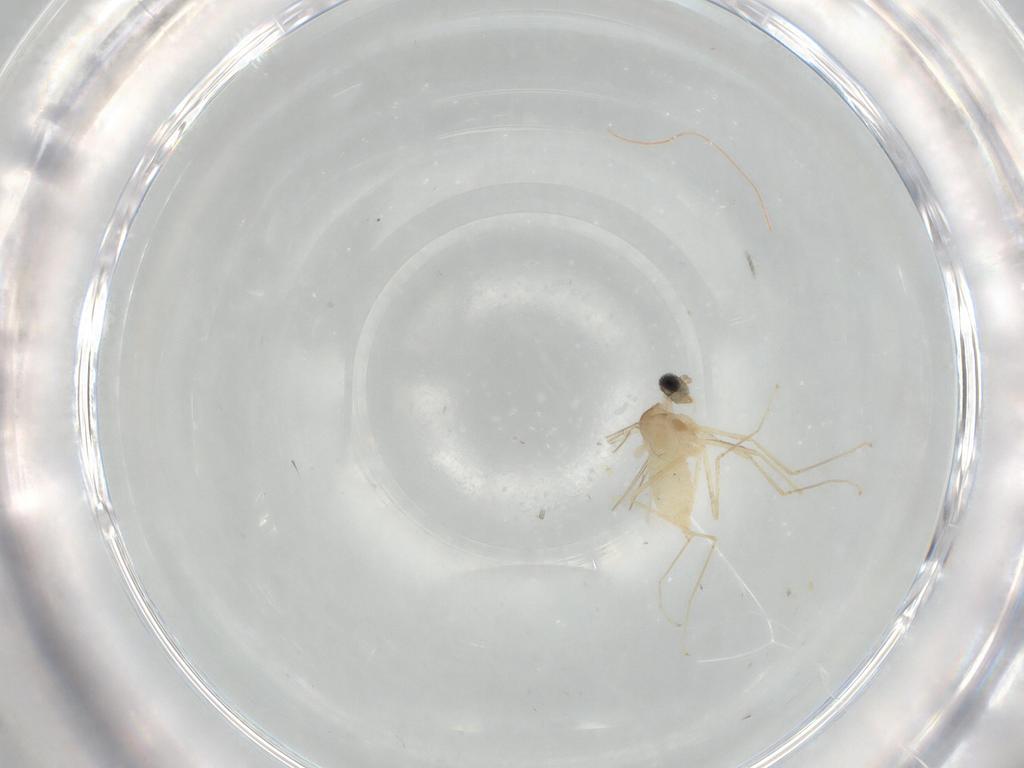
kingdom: Animalia
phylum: Arthropoda
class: Insecta
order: Diptera
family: Cecidomyiidae
